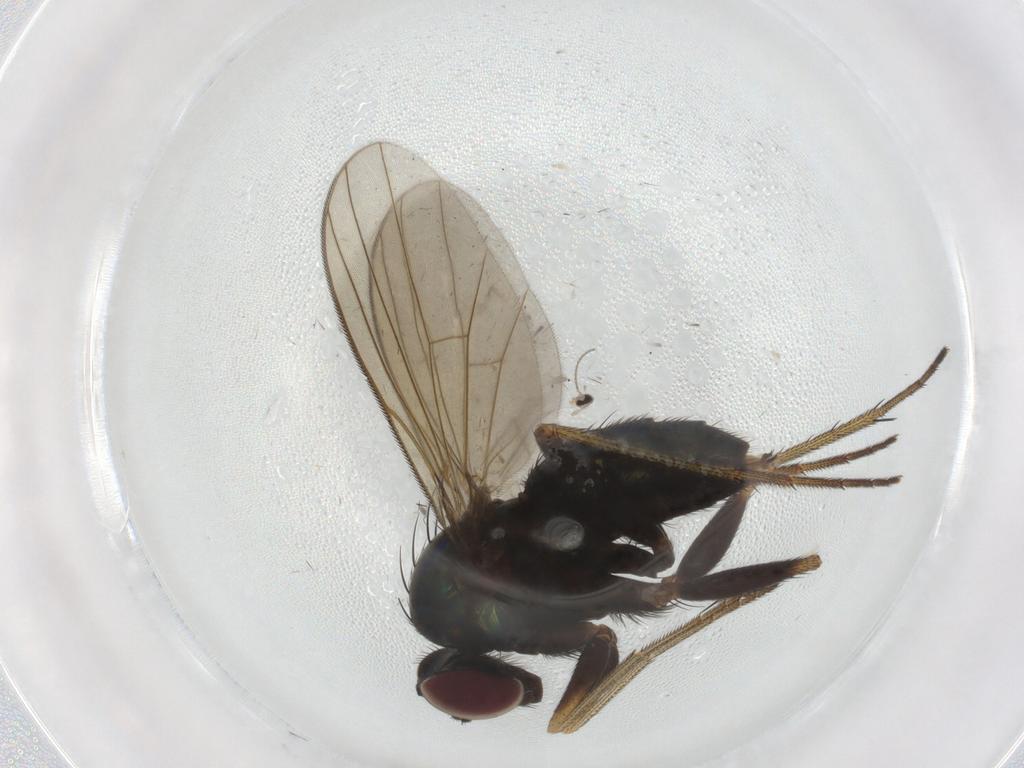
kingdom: Animalia
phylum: Arthropoda
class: Insecta
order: Diptera
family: Dolichopodidae
